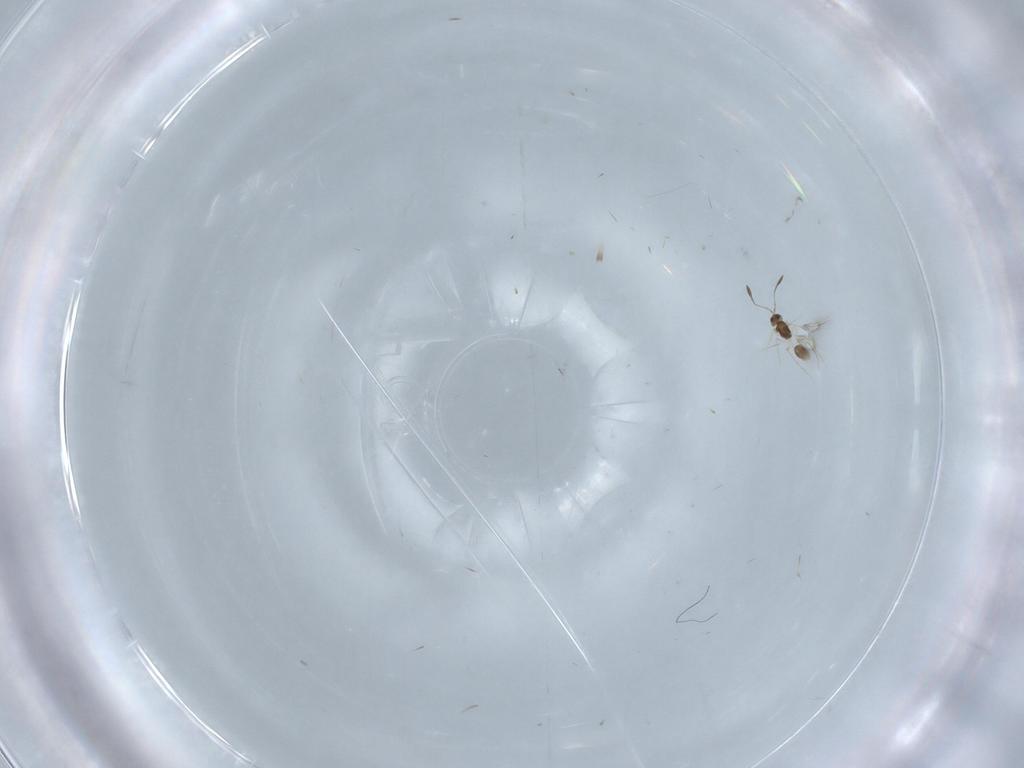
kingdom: Animalia
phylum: Arthropoda
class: Insecta
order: Hymenoptera
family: Mymarommatidae
